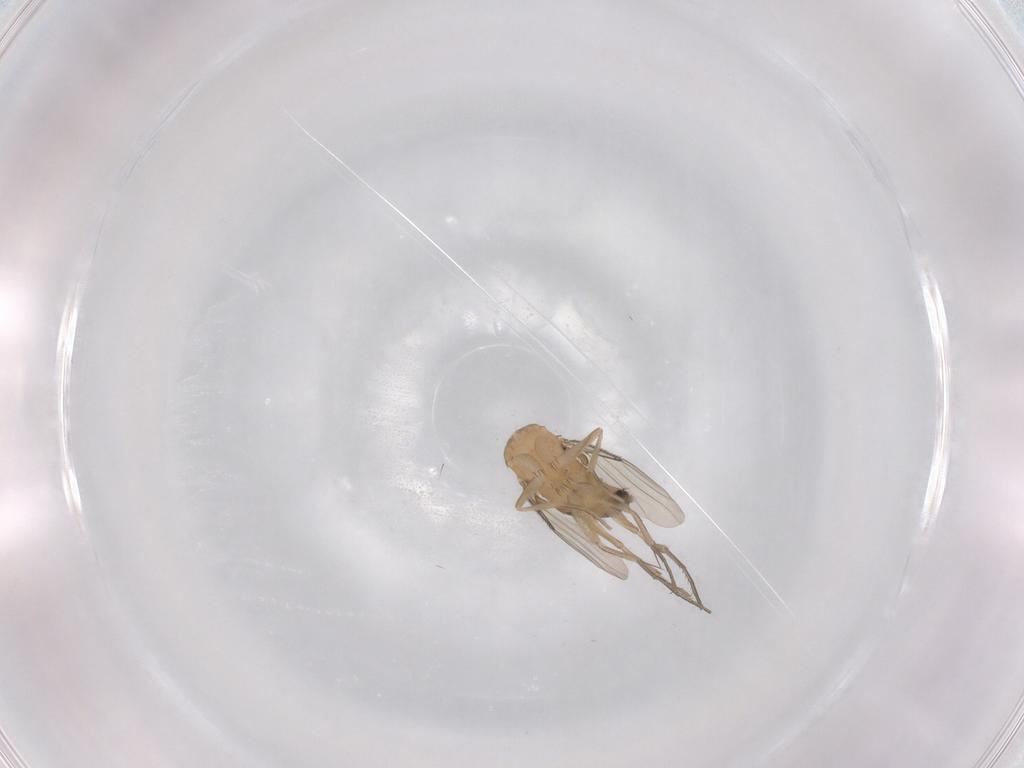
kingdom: Animalia
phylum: Arthropoda
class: Insecta
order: Diptera
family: Phoridae
